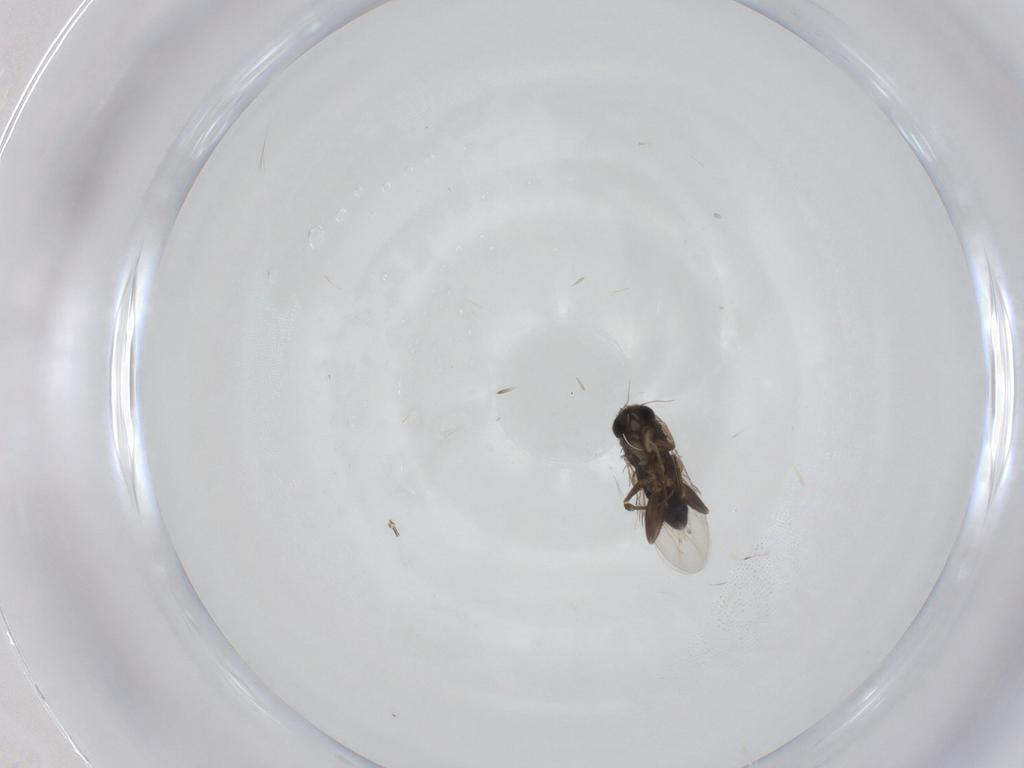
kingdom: Animalia
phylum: Arthropoda
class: Insecta
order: Diptera
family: Phoridae
